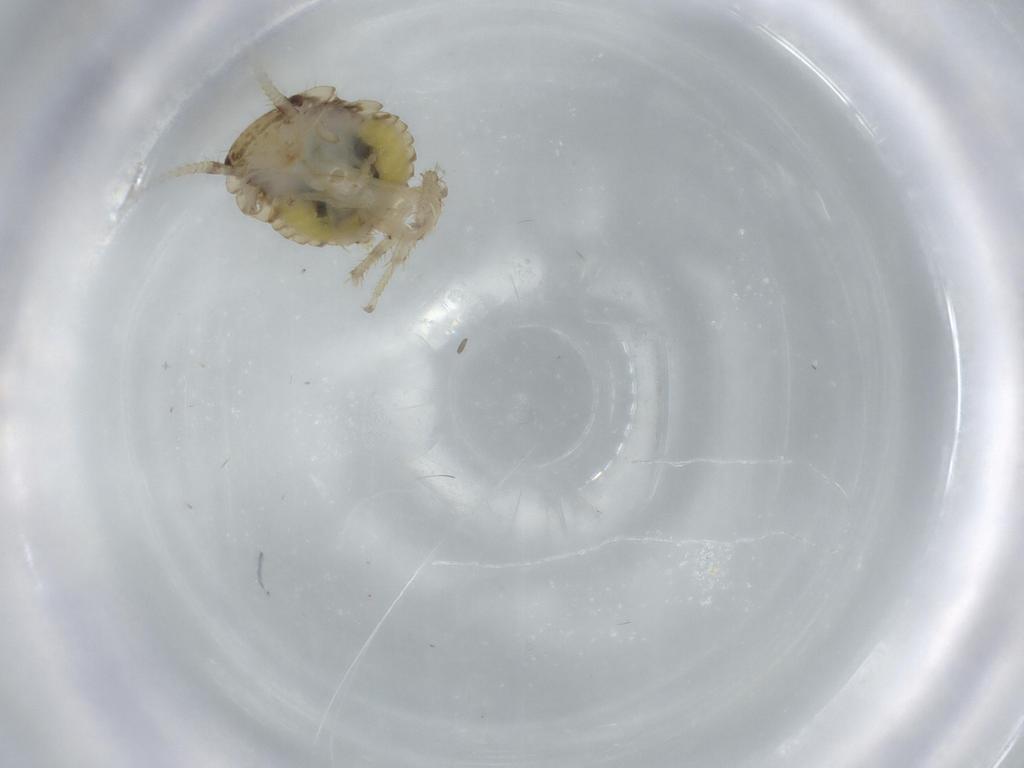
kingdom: Animalia
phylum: Arthropoda
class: Insecta
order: Blattodea
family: Ectobiidae
